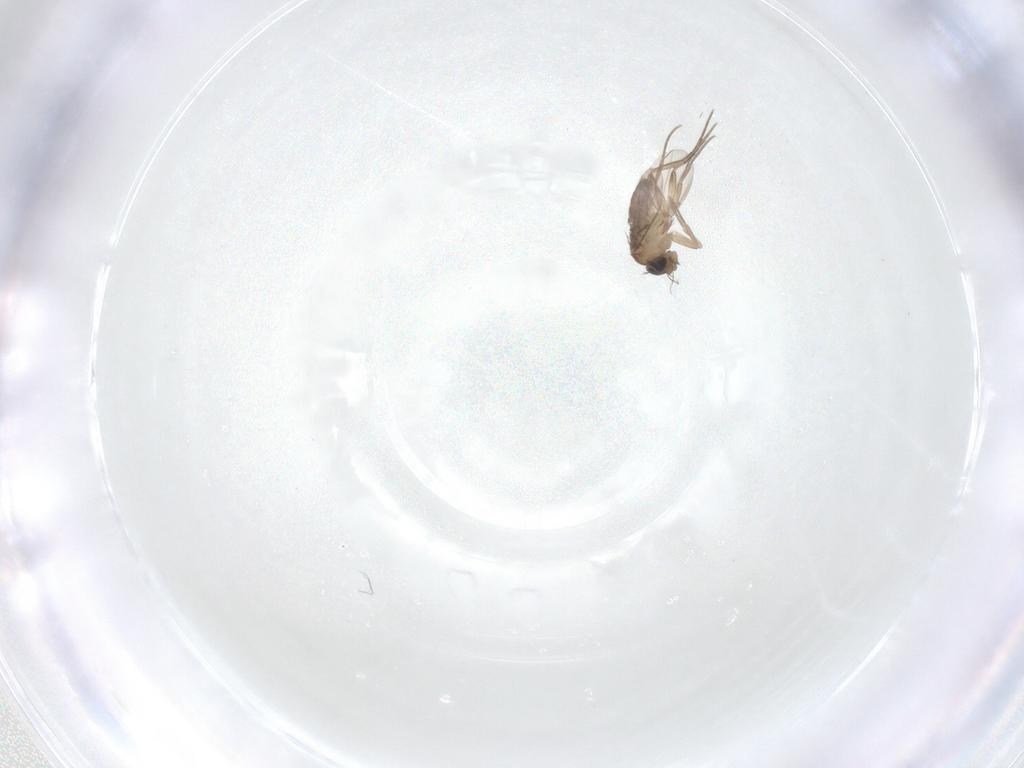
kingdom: Animalia
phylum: Arthropoda
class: Insecta
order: Diptera
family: Phoridae
